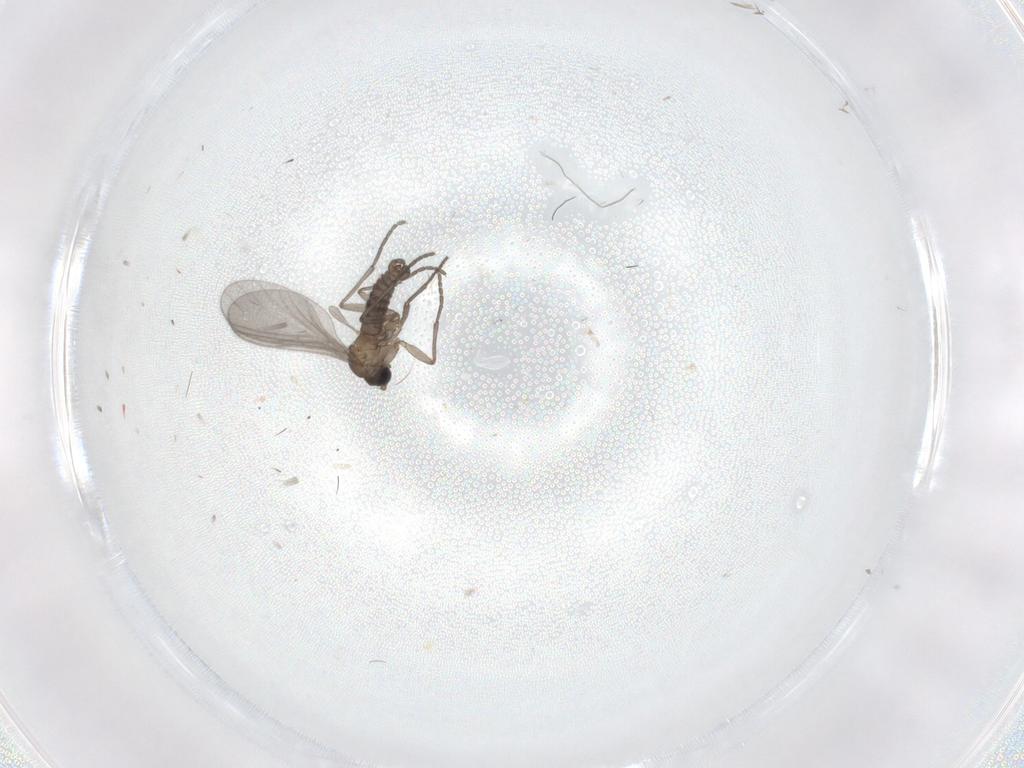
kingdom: Animalia
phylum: Arthropoda
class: Insecta
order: Diptera
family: Sciaridae
